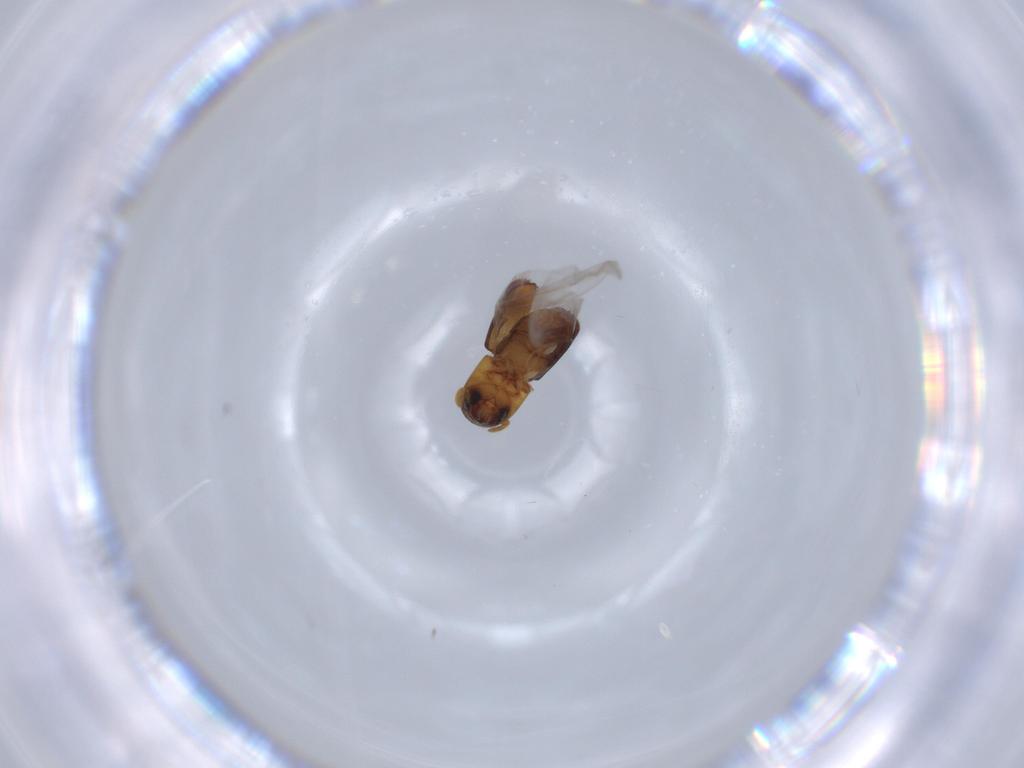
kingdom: Animalia
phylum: Arthropoda
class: Insecta
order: Coleoptera
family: Curculionidae
